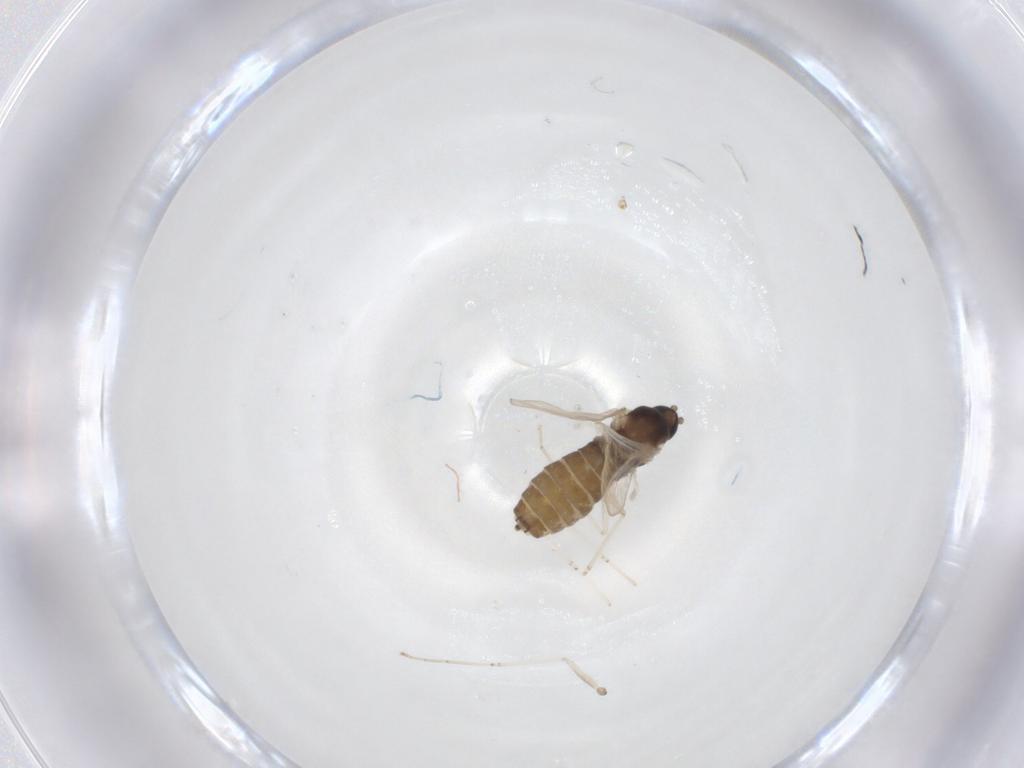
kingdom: Animalia
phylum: Arthropoda
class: Insecta
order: Diptera
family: Cecidomyiidae
